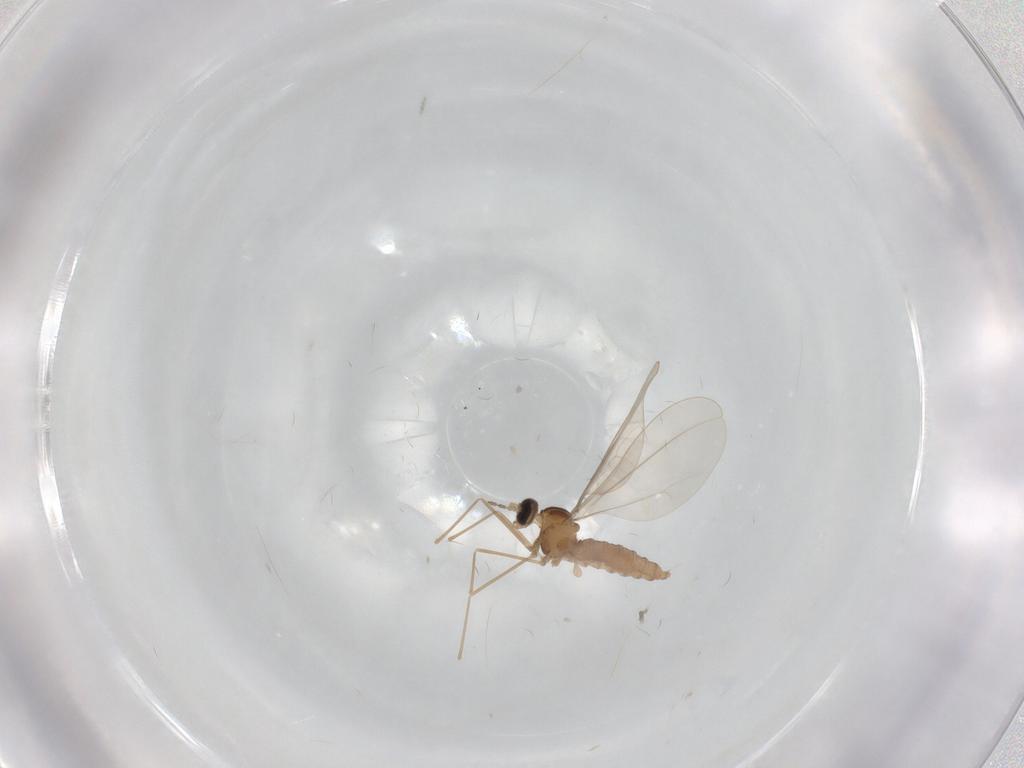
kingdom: Animalia
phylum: Arthropoda
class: Insecta
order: Diptera
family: Cecidomyiidae
